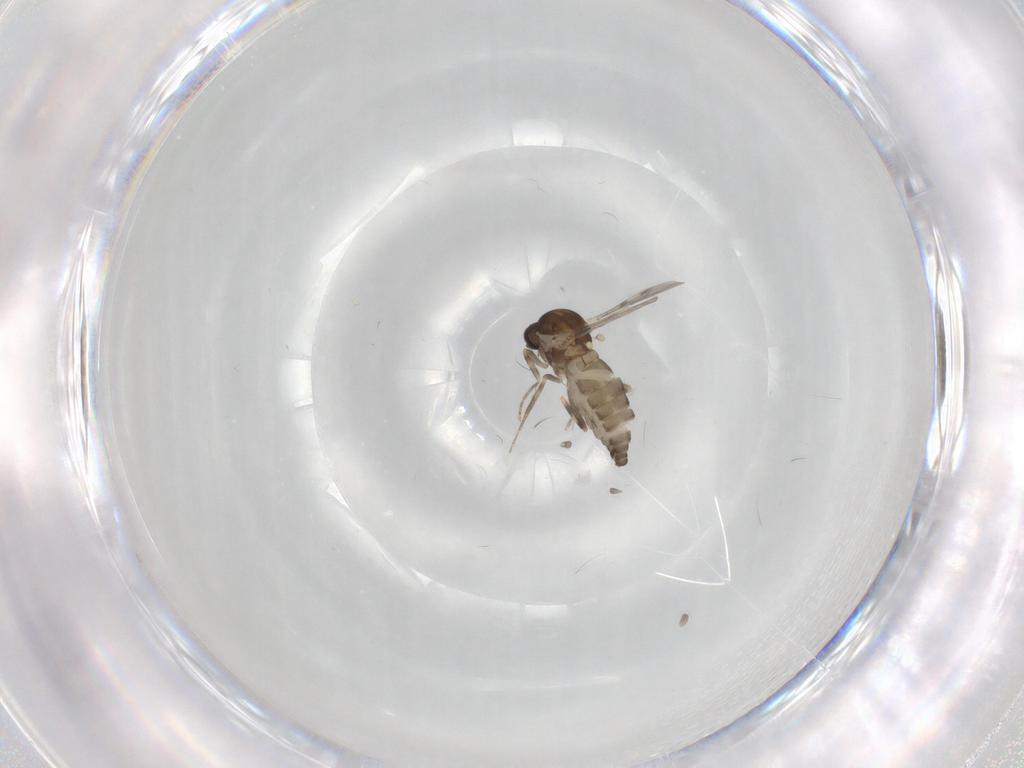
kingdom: Animalia
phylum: Arthropoda
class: Insecta
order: Diptera
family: Ceratopogonidae
